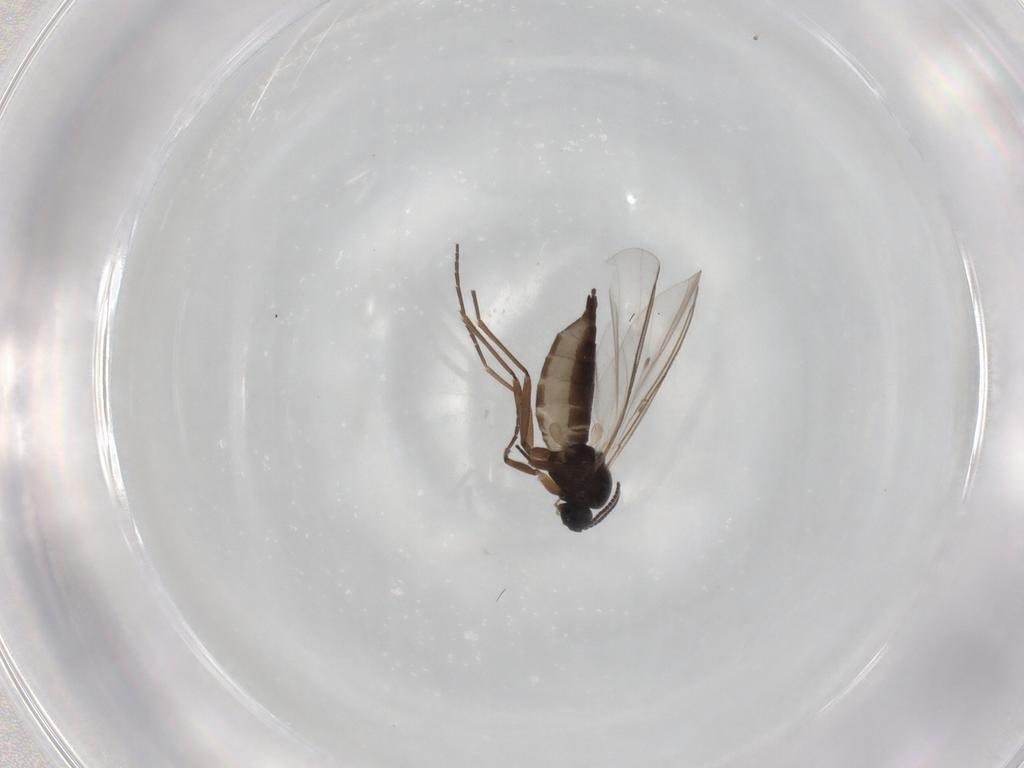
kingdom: Animalia
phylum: Arthropoda
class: Insecta
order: Diptera
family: Sciaridae
